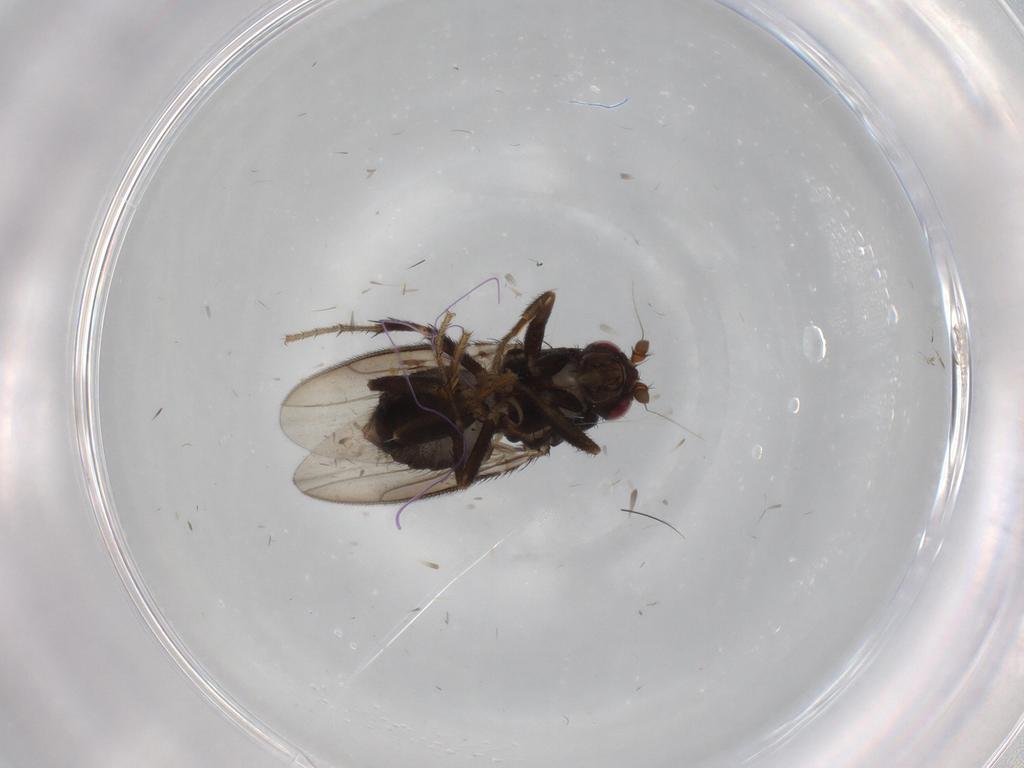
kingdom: Animalia
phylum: Arthropoda
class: Insecta
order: Diptera
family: Sphaeroceridae
